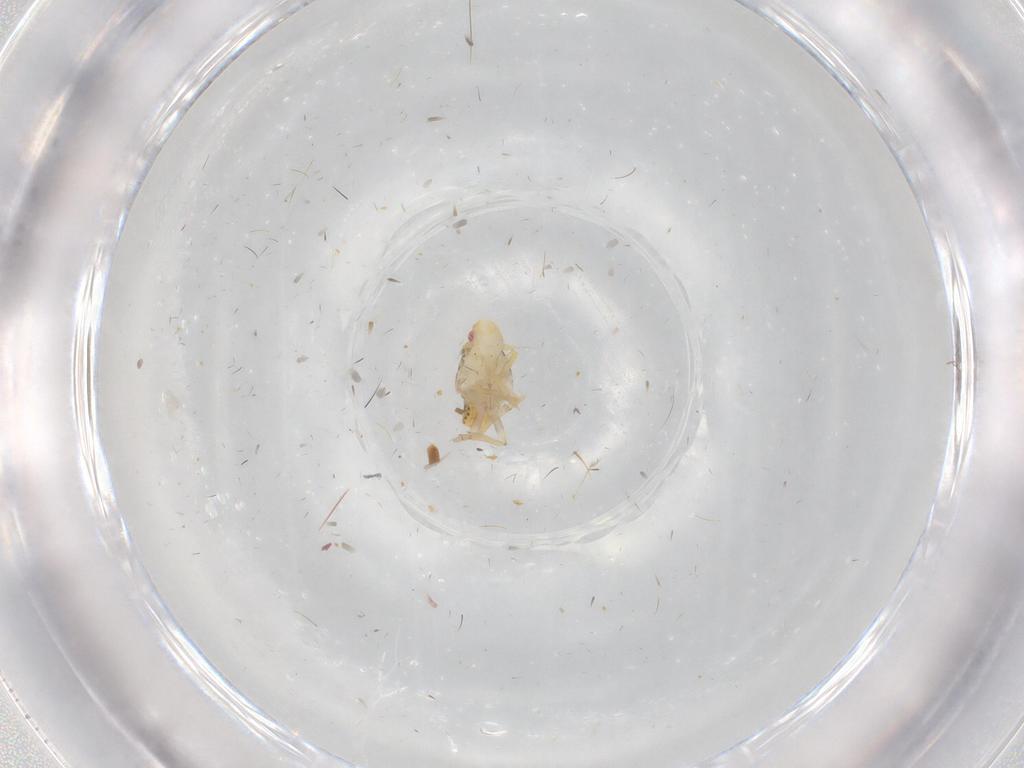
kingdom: Animalia
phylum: Arthropoda
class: Insecta
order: Hemiptera
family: Fulgoroidea_incertae_sedis
